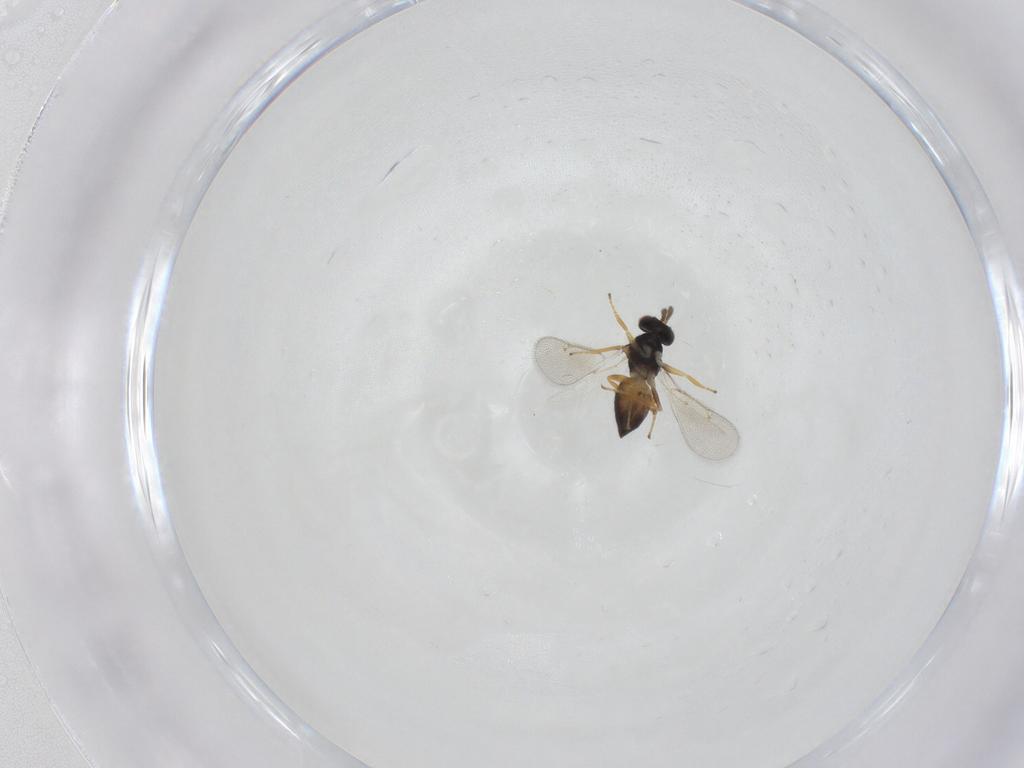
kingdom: Animalia
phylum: Arthropoda
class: Insecta
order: Hymenoptera
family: Eulophidae
